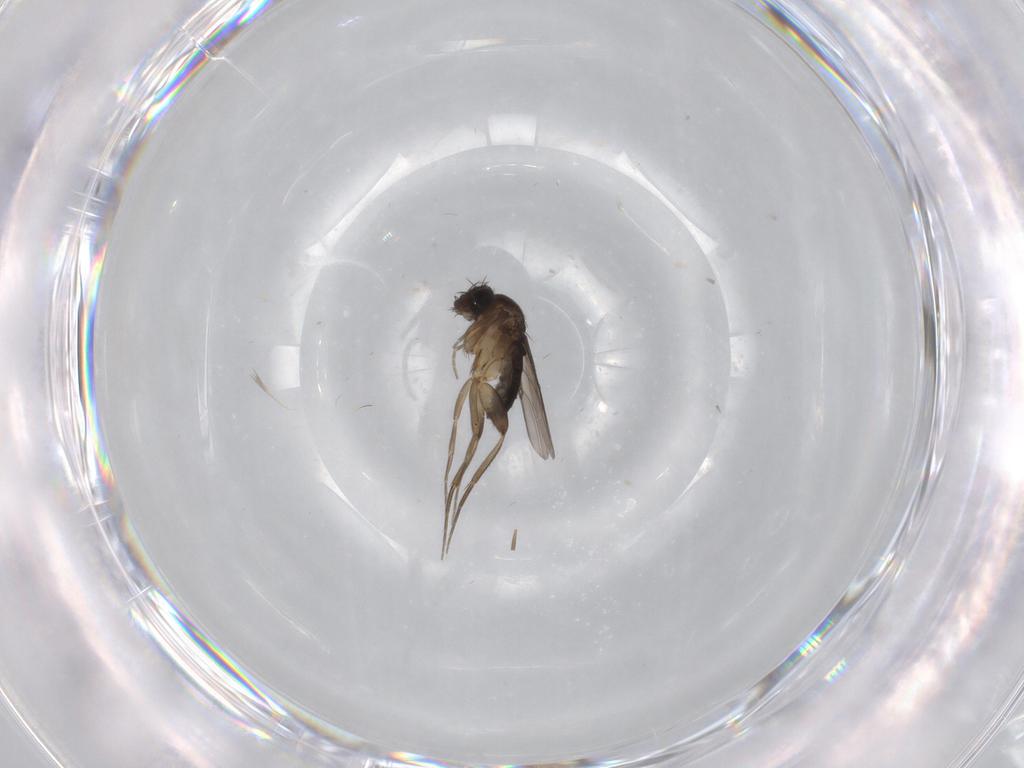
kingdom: Animalia
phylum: Arthropoda
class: Insecta
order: Diptera
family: Phoridae
